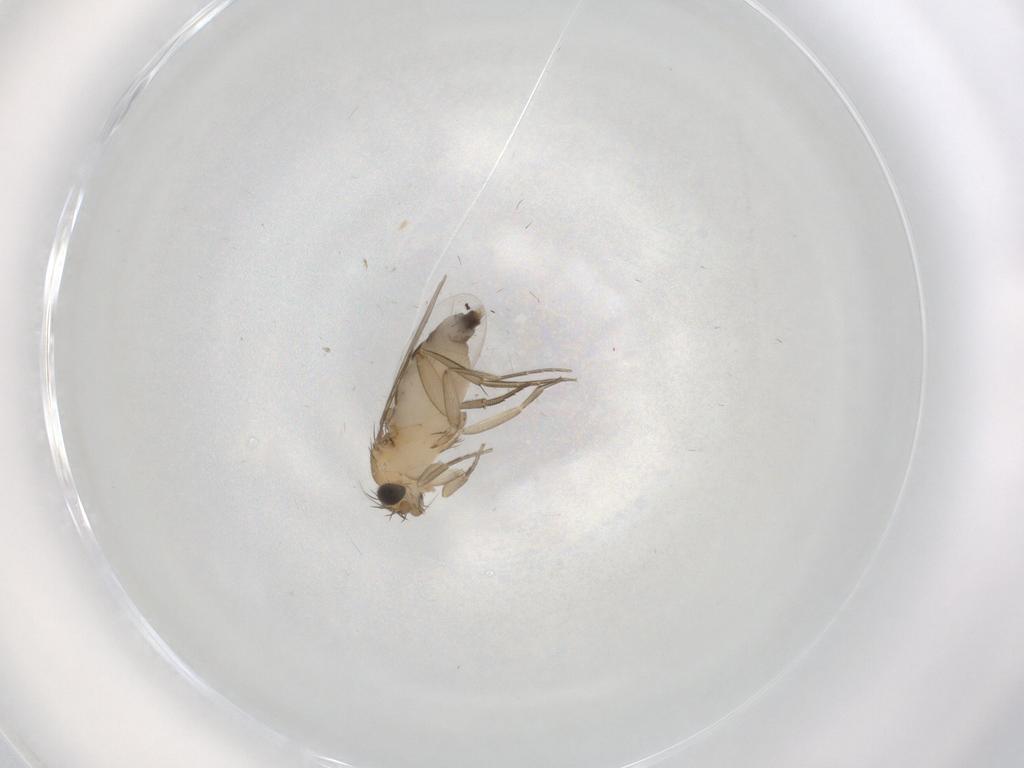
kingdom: Animalia
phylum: Arthropoda
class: Insecta
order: Diptera
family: Phoridae
